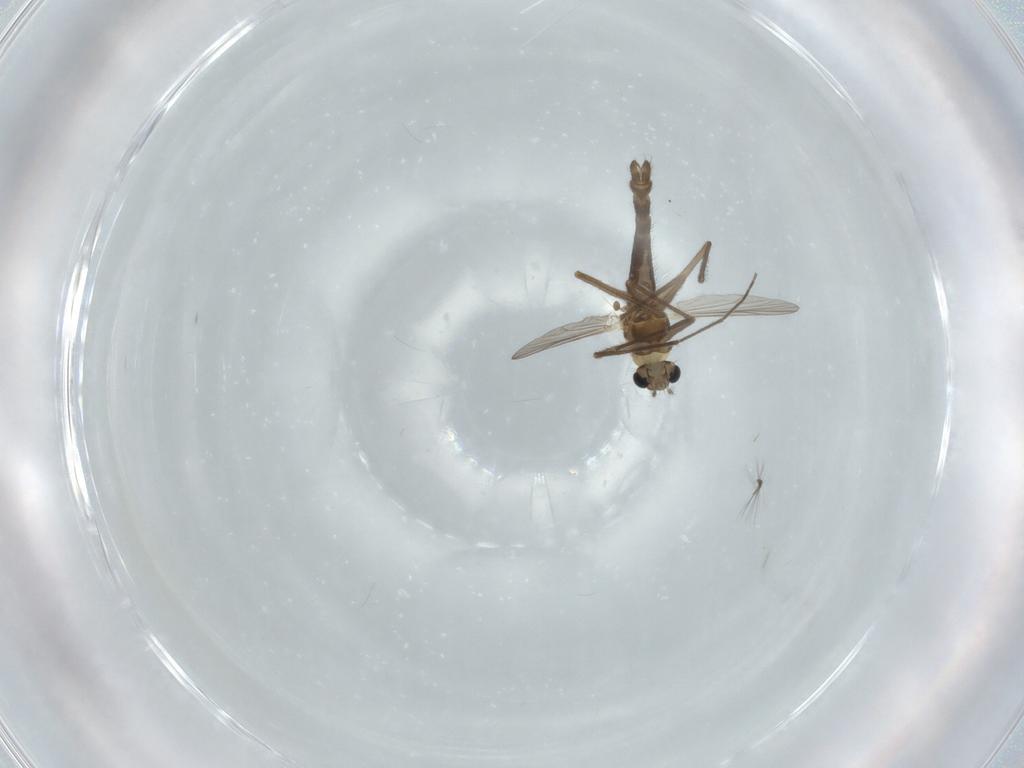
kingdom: Animalia
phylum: Arthropoda
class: Insecta
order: Diptera
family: Chironomidae
